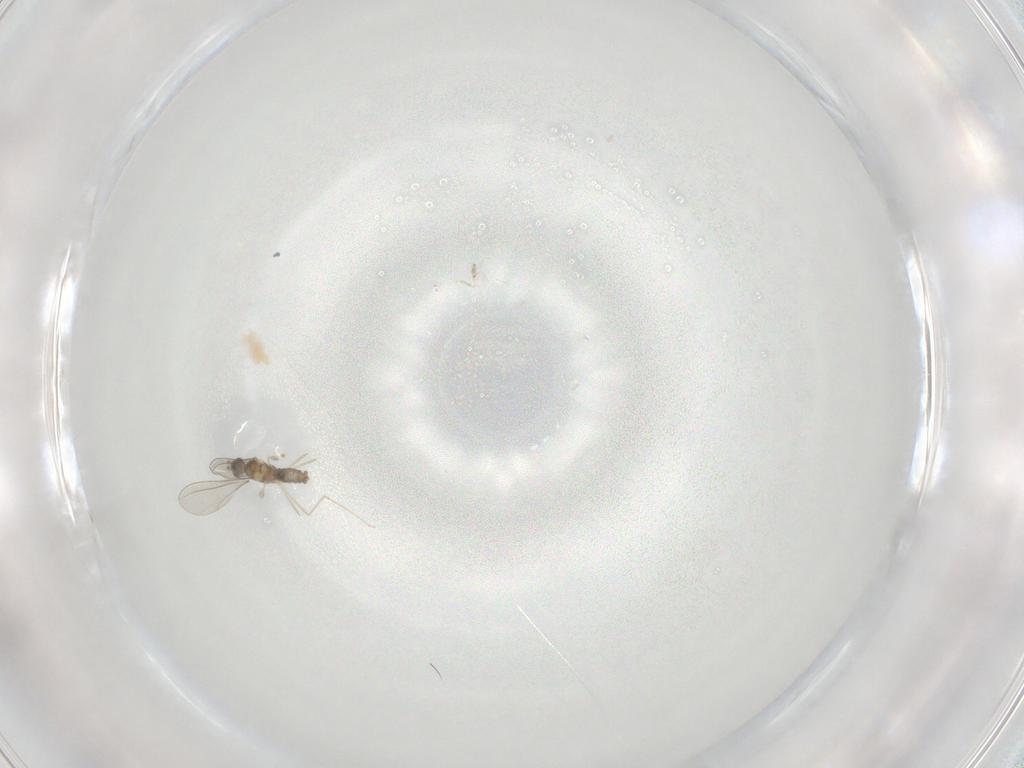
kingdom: Animalia
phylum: Arthropoda
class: Insecta
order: Diptera
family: Cecidomyiidae
